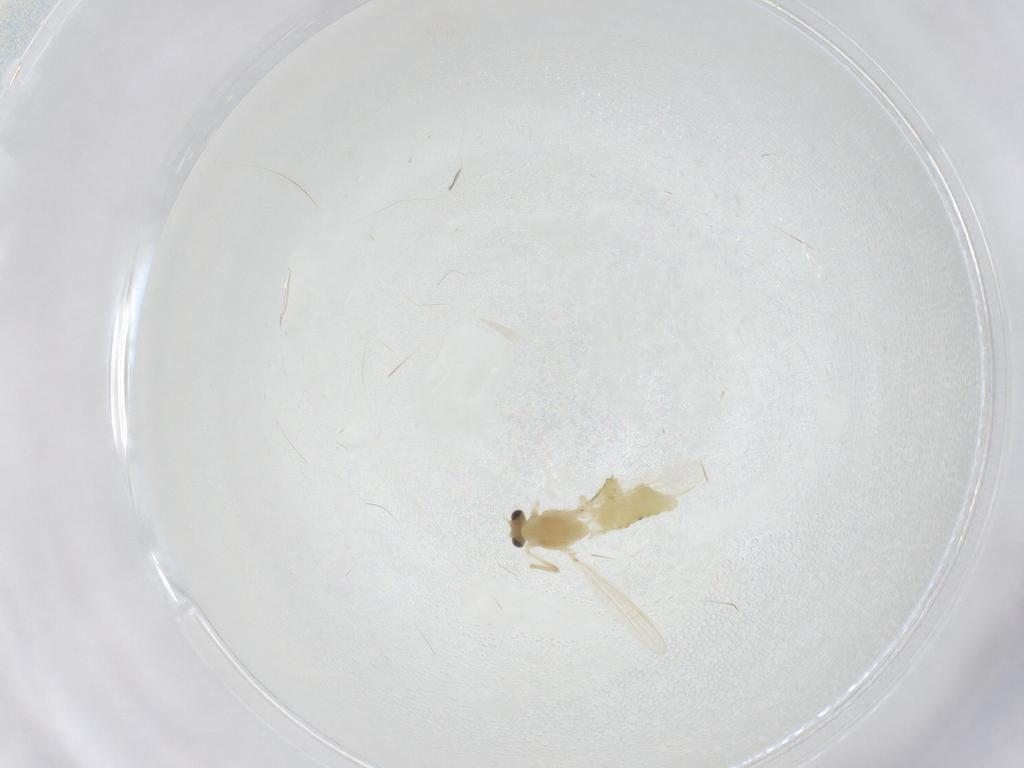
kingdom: Animalia
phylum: Arthropoda
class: Insecta
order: Diptera
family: Chironomidae
